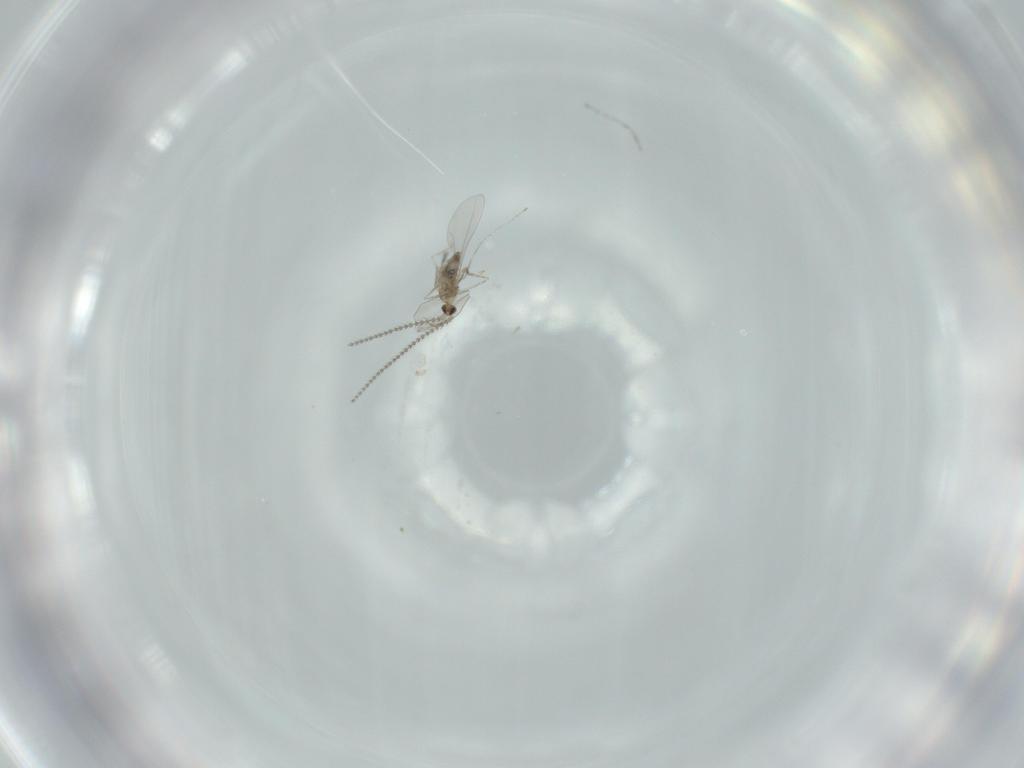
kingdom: Animalia
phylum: Arthropoda
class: Insecta
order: Diptera
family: Cecidomyiidae
